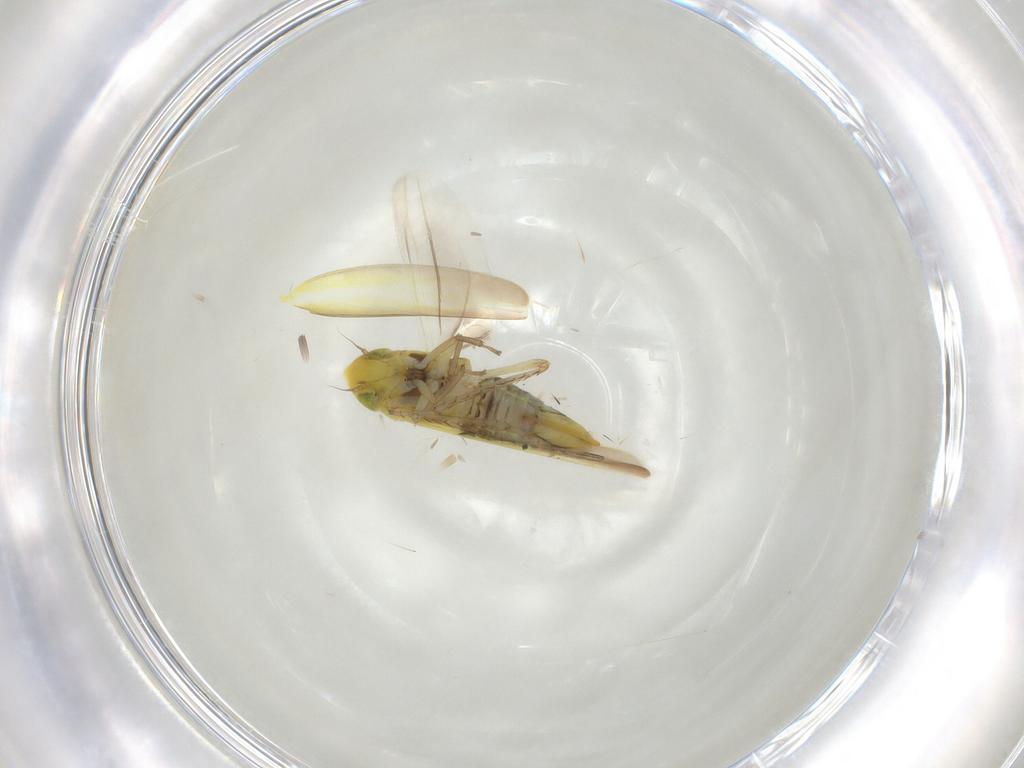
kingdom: Animalia
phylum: Arthropoda
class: Insecta
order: Hemiptera
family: Cicadellidae
